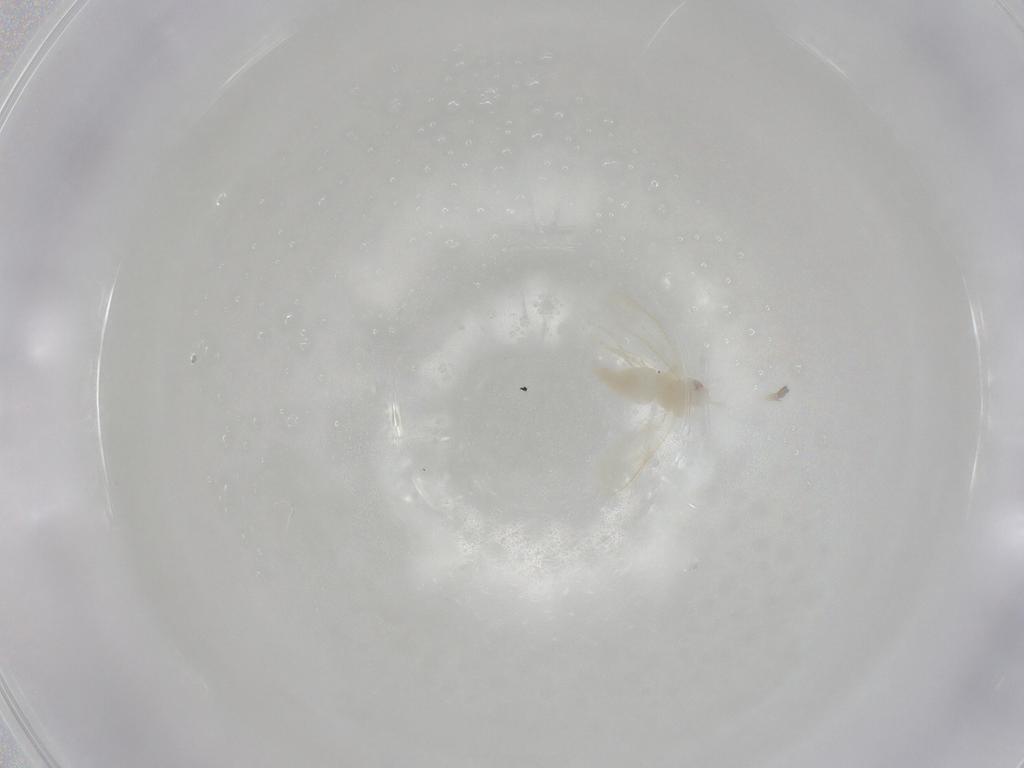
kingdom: Animalia
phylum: Arthropoda
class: Insecta
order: Hemiptera
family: Aleyrodidae
